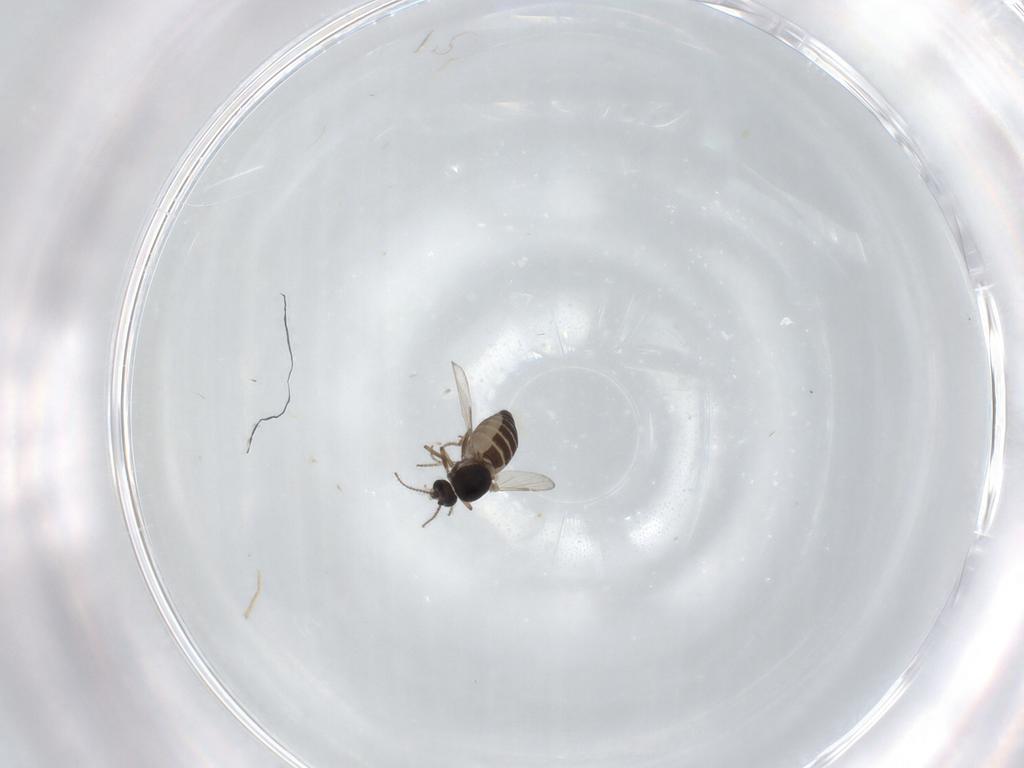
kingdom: Animalia
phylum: Arthropoda
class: Insecta
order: Diptera
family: Ceratopogonidae
